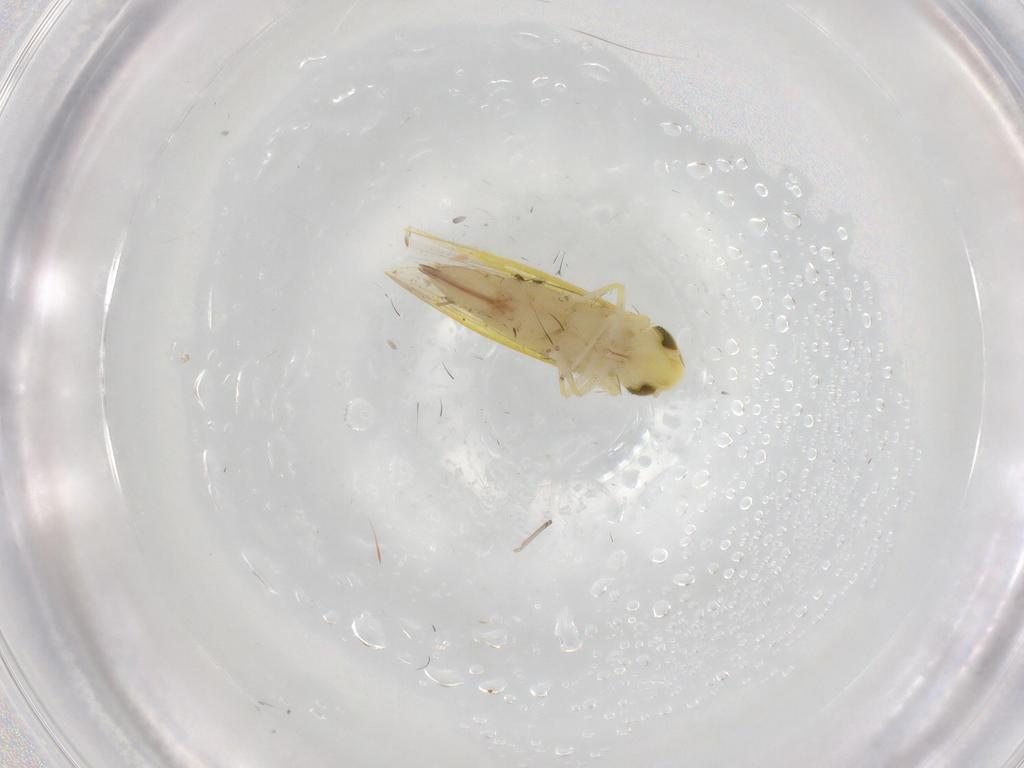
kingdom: Animalia
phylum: Arthropoda
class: Insecta
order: Hemiptera
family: Cicadellidae
